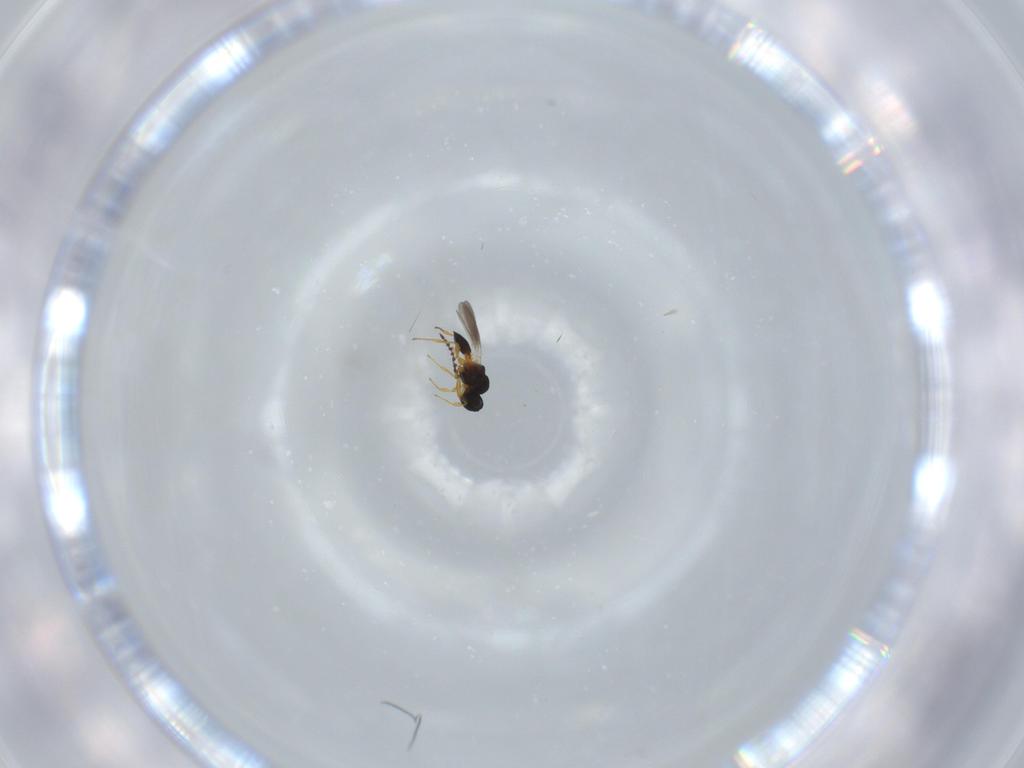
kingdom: Animalia
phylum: Arthropoda
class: Insecta
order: Hymenoptera
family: Platygastridae
